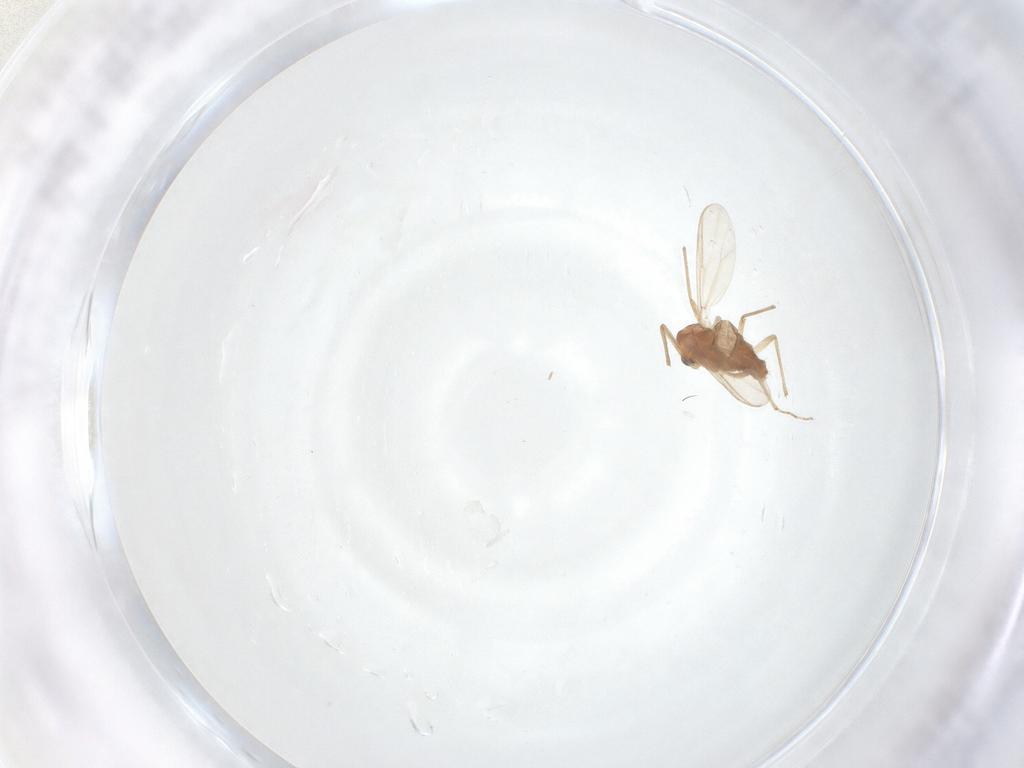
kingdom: Animalia
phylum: Arthropoda
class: Insecta
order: Diptera
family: Chironomidae
